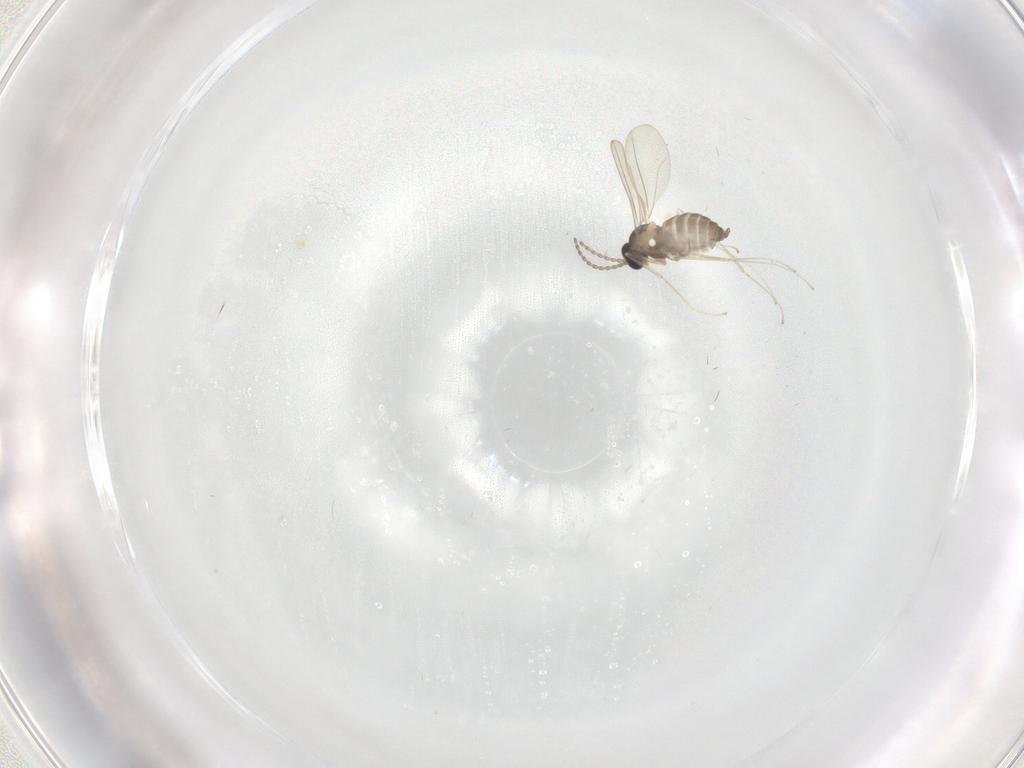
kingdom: Animalia
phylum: Arthropoda
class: Insecta
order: Diptera
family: Cecidomyiidae
